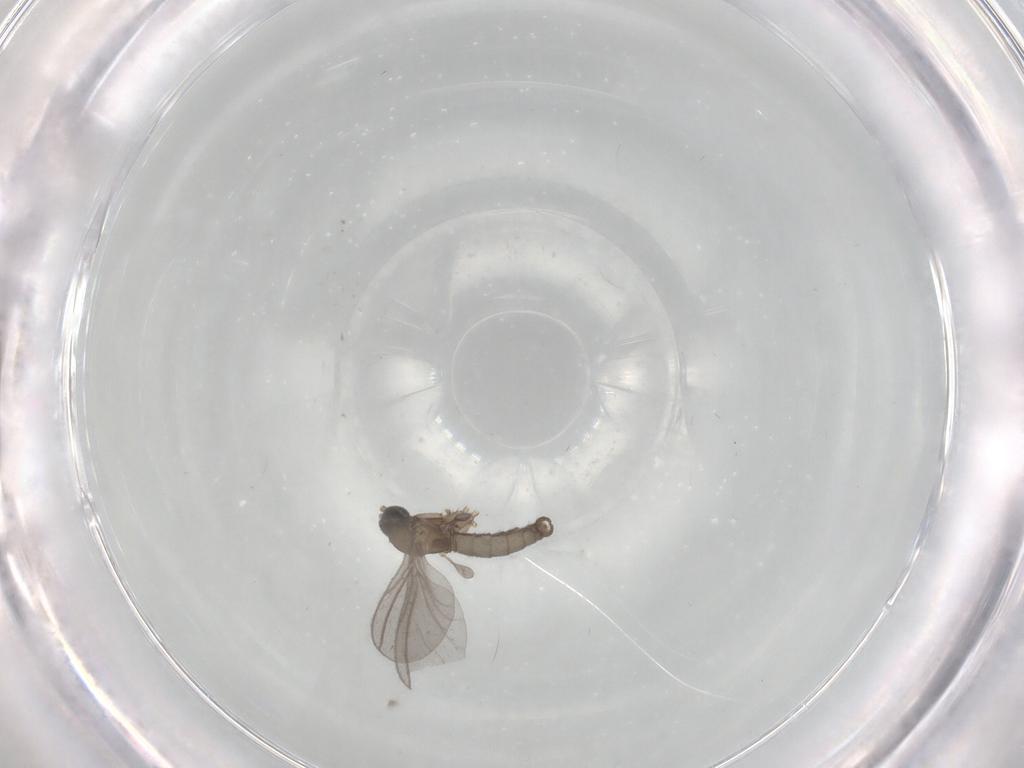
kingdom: Animalia
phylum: Arthropoda
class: Insecta
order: Diptera
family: Sciaridae
